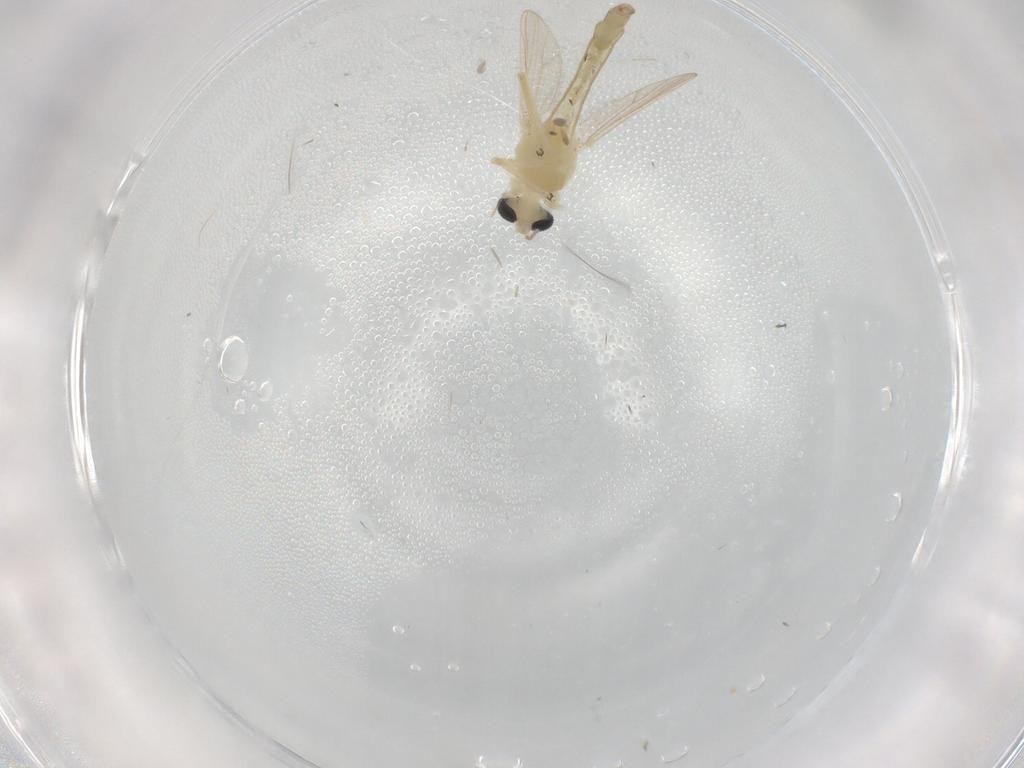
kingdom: Animalia
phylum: Arthropoda
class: Insecta
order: Diptera
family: Chironomidae
